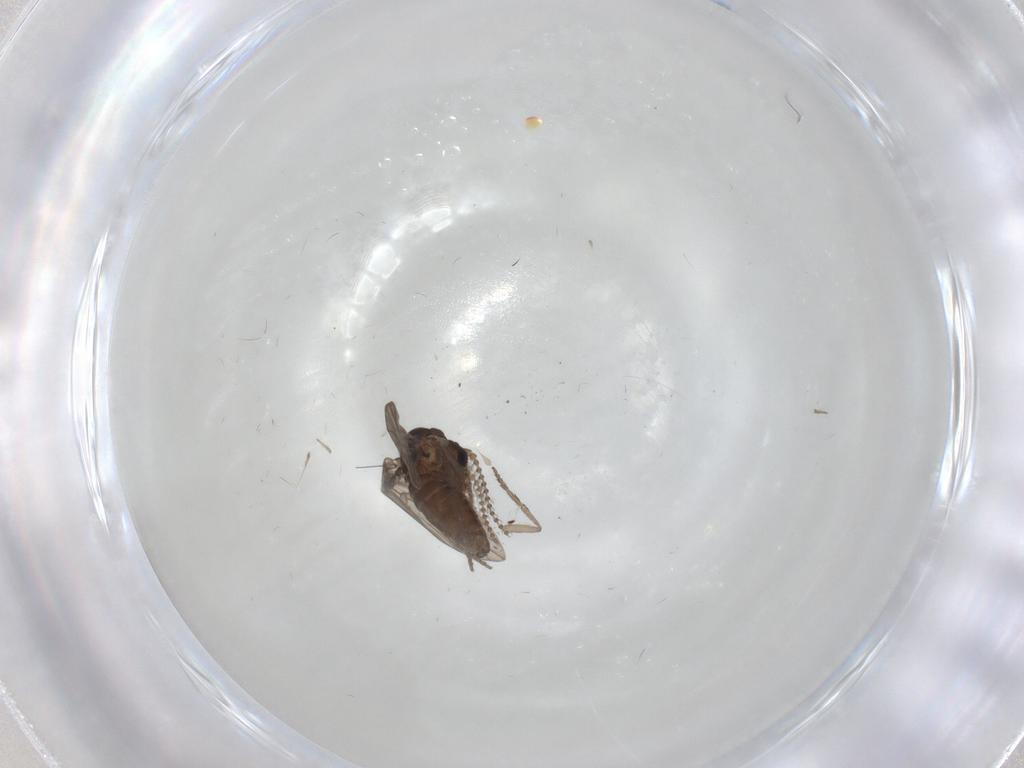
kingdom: Animalia
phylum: Arthropoda
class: Insecta
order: Diptera
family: Psychodidae
